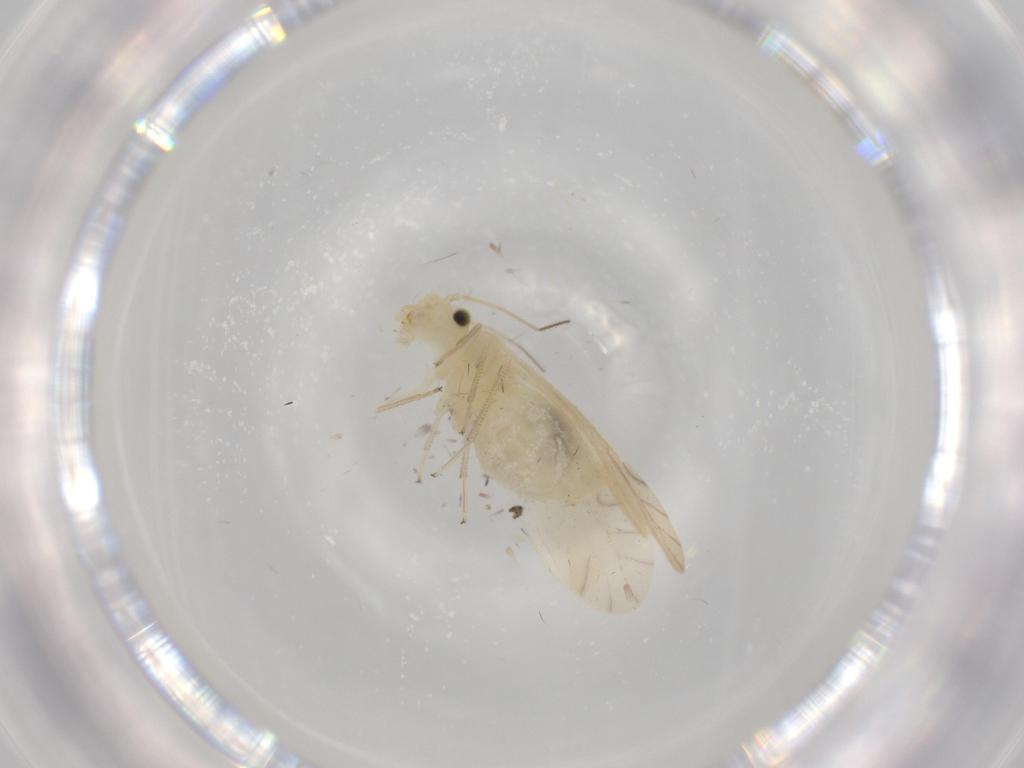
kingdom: Animalia
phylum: Arthropoda
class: Insecta
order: Psocodea
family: Caeciliusidae
